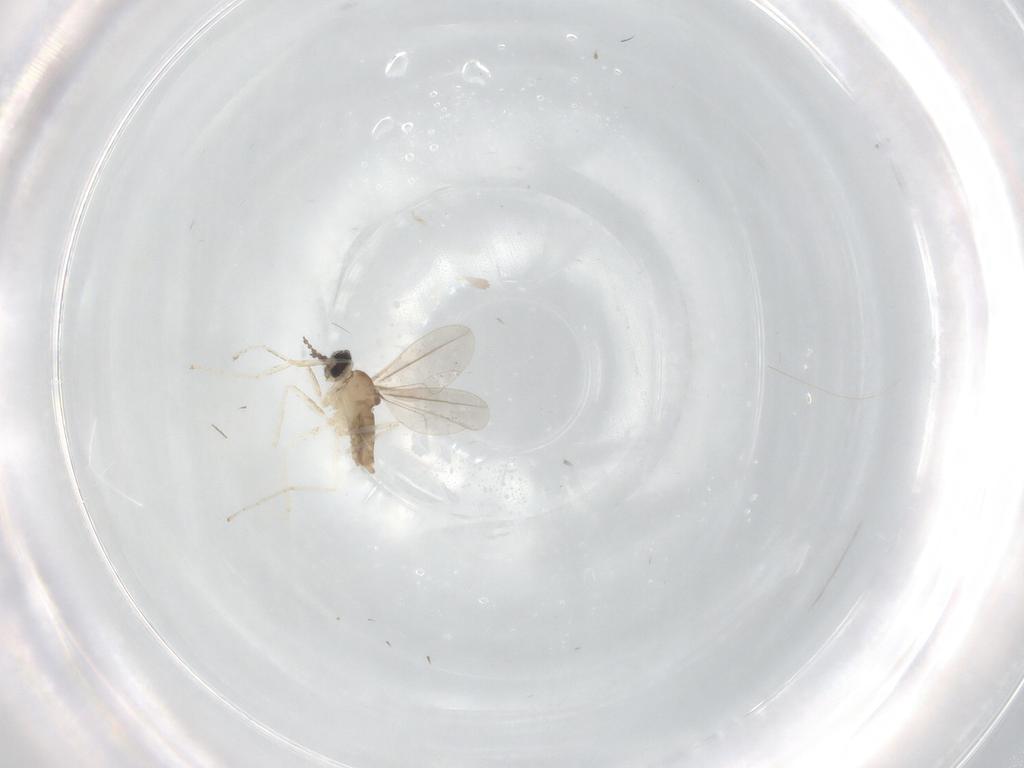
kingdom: Animalia
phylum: Arthropoda
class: Insecta
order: Diptera
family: Cecidomyiidae
